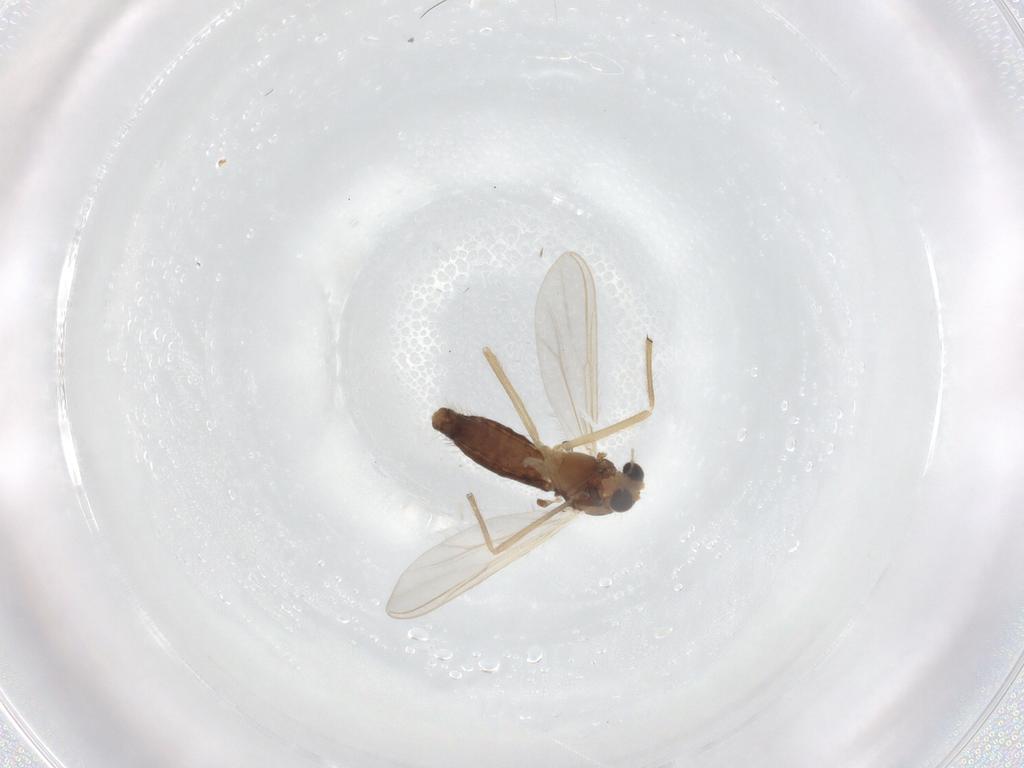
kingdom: Animalia
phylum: Arthropoda
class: Insecta
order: Diptera
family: Chironomidae
